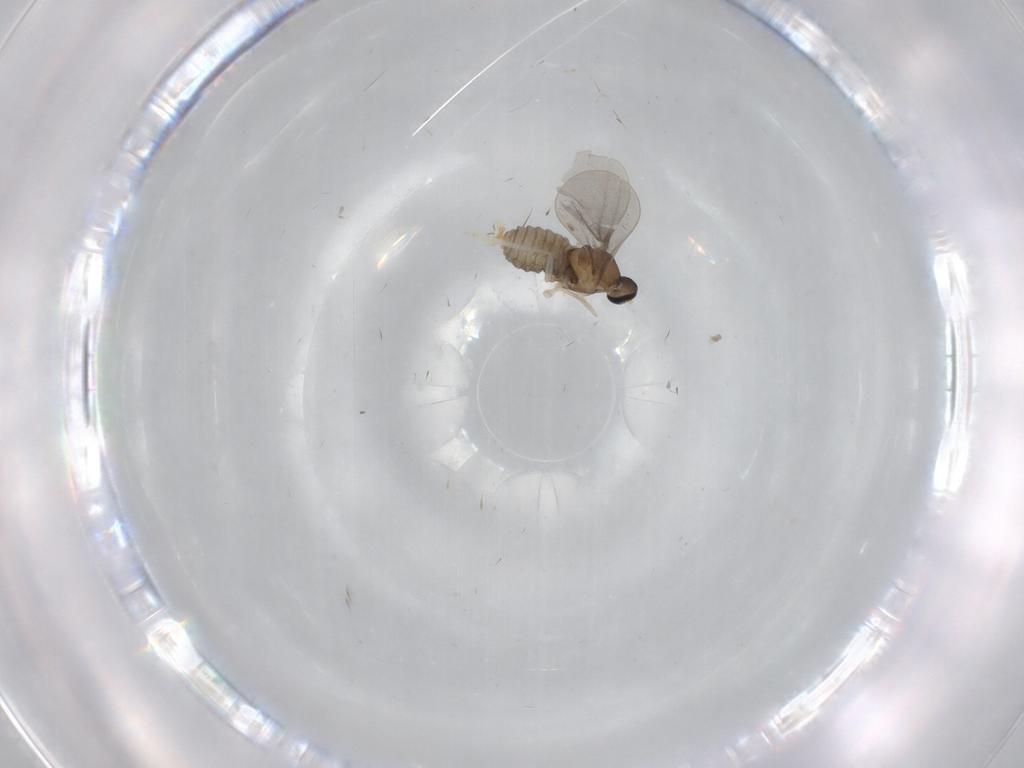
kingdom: Animalia
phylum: Arthropoda
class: Insecta
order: Diptera
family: Cecidomyiidae
